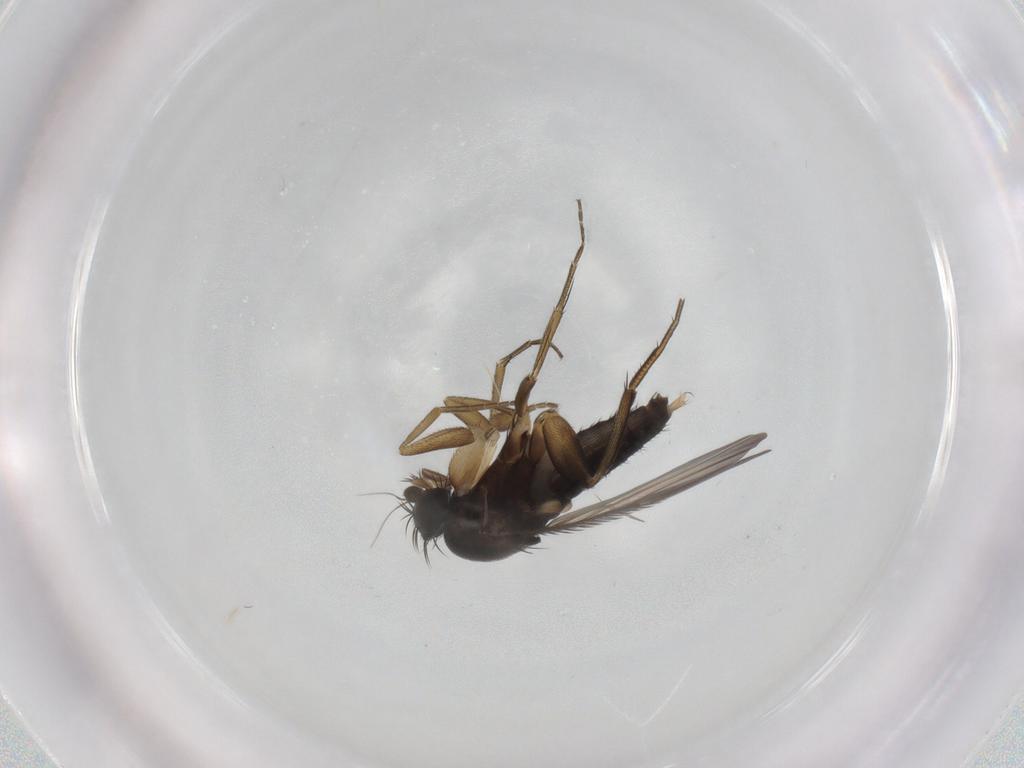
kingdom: Animalia
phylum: Arthropoda
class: Insecta
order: Diptera
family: Phoridae
